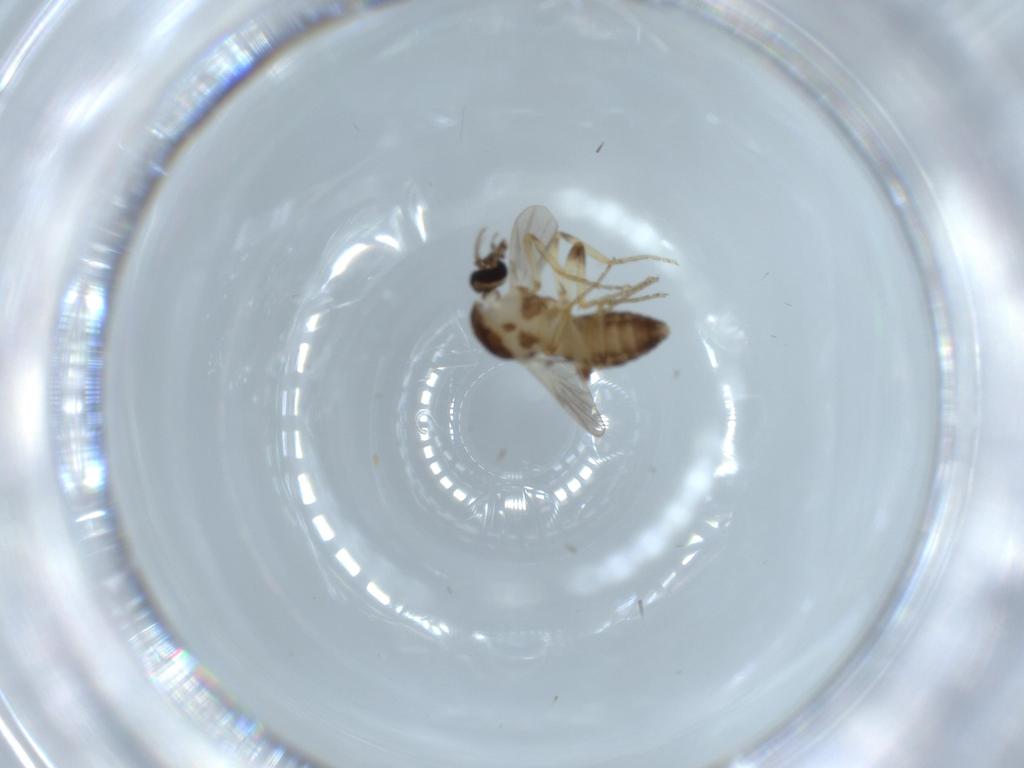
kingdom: Animalia
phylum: Arthropoda
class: Insecta
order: Diptera
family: Ceratopogonidae
